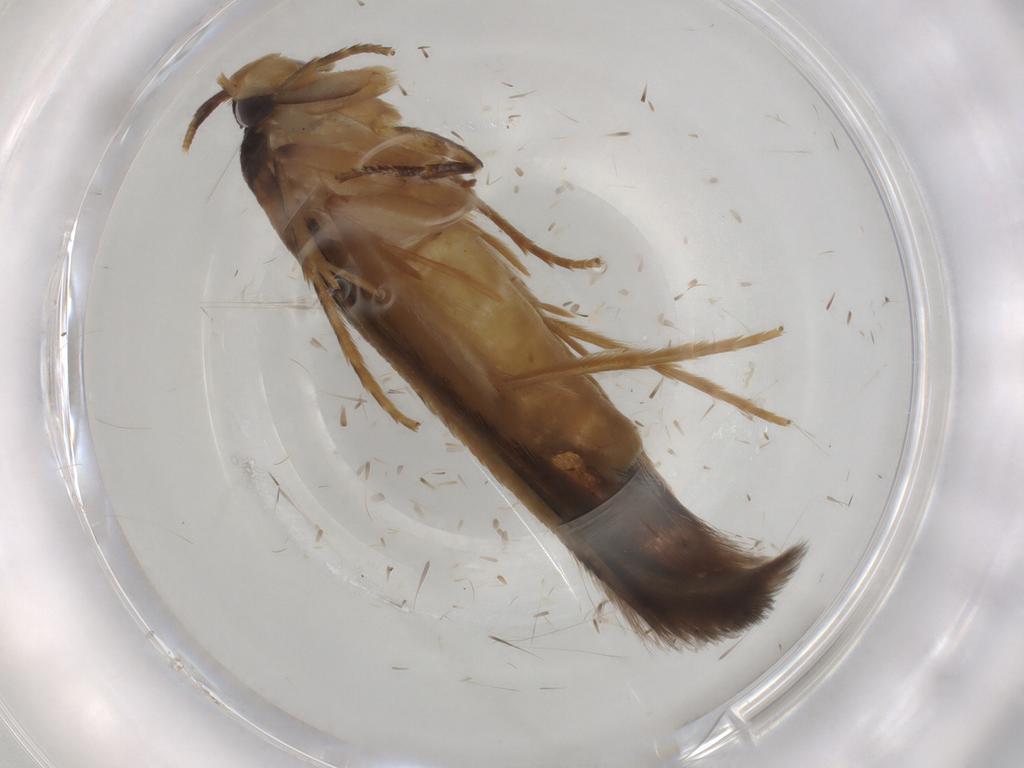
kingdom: Animalia
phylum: Arthropoda
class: Insecta
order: Lepidoptera
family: Tineidae
